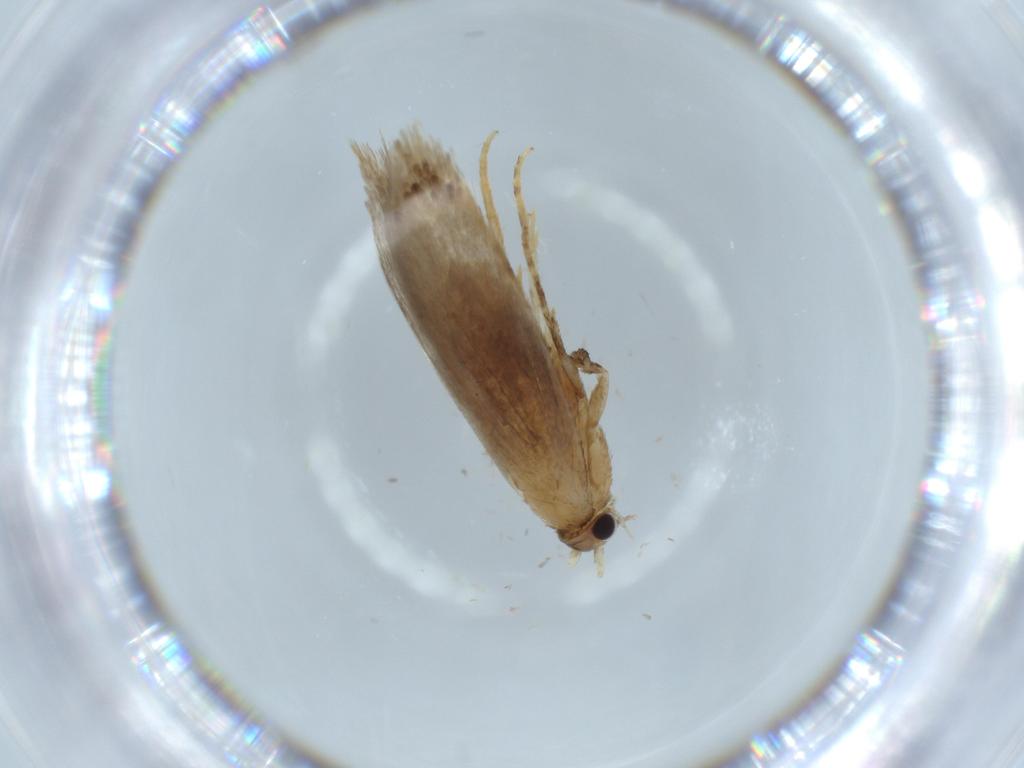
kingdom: Animalia
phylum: Arthropoda
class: Insecta
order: Lepidoptera
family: Tineidae
